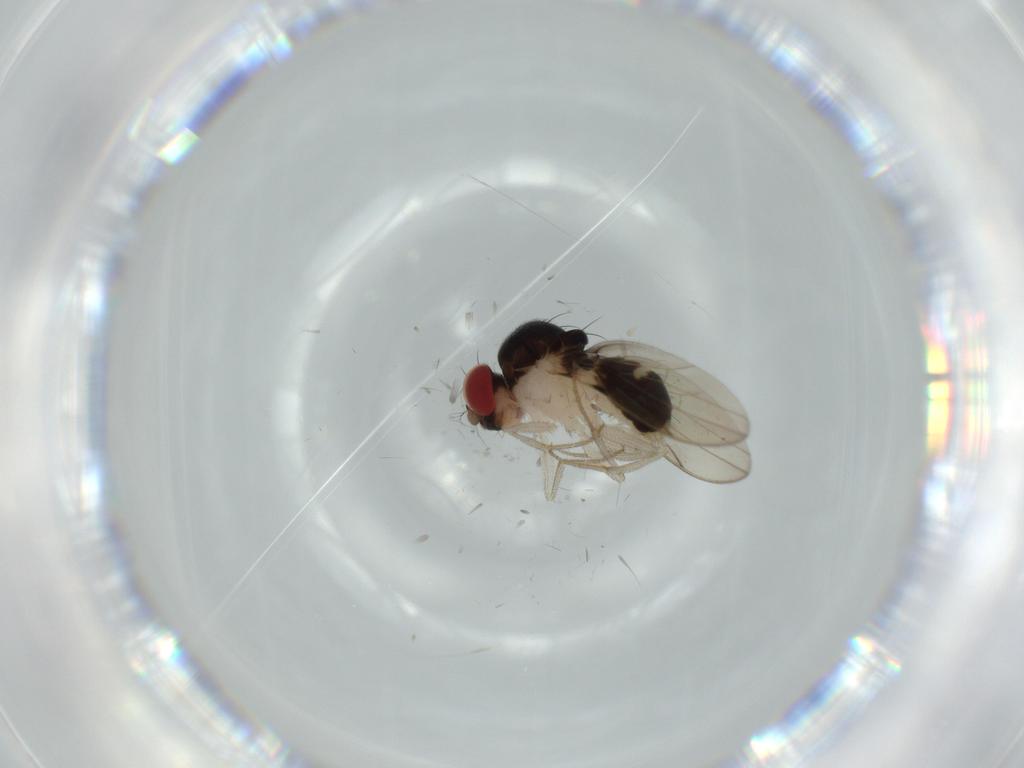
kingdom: Animalia
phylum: Arthropoda
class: Insecta
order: Diptera
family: Drosophilidae
